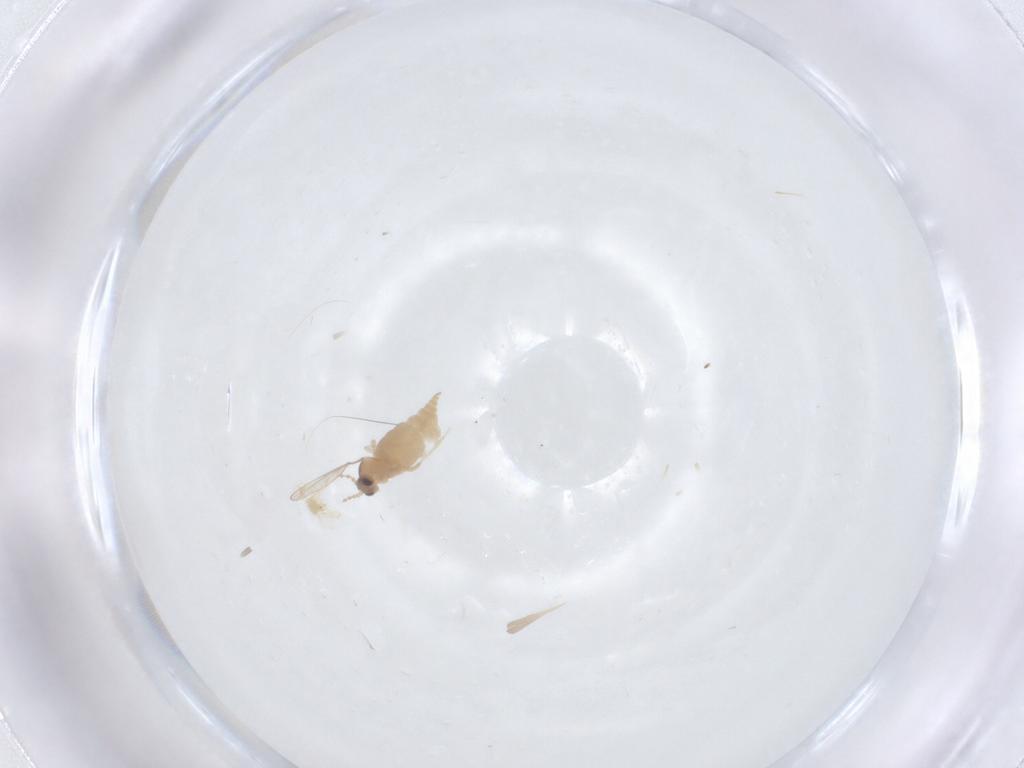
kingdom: Animalia
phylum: Arthropoda
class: Insecta
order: Diptera
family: Cecidomyiidae
